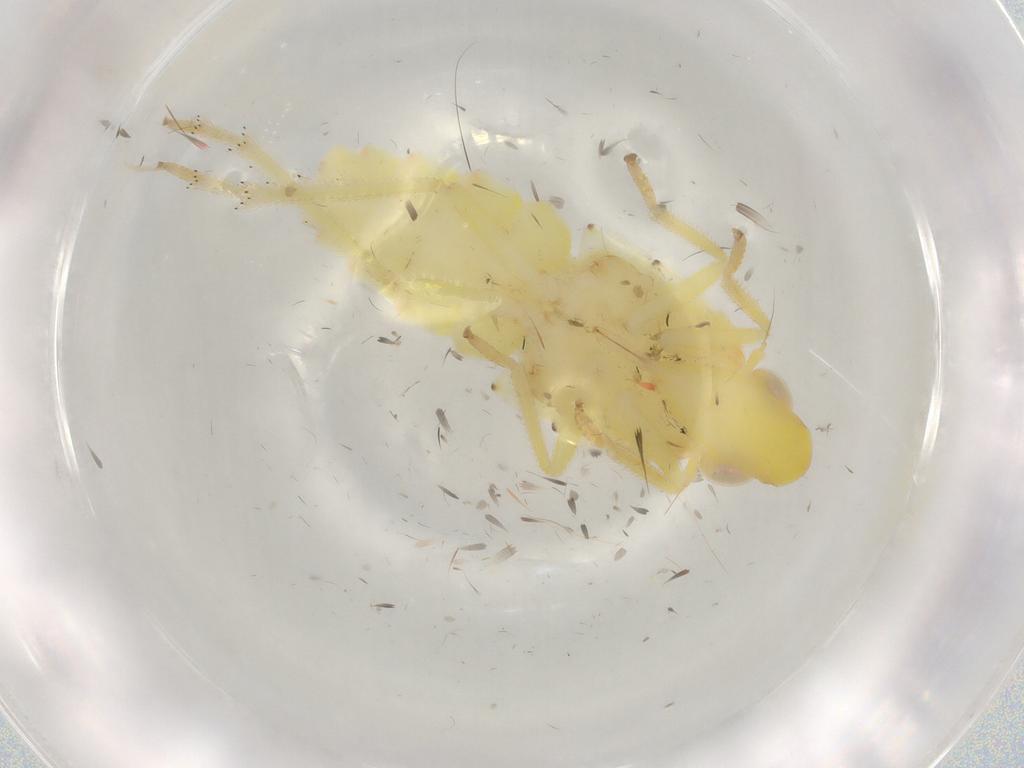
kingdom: Animalia
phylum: Arthropoda
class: Insecta
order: Hemiptera
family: Tropiduchidae
